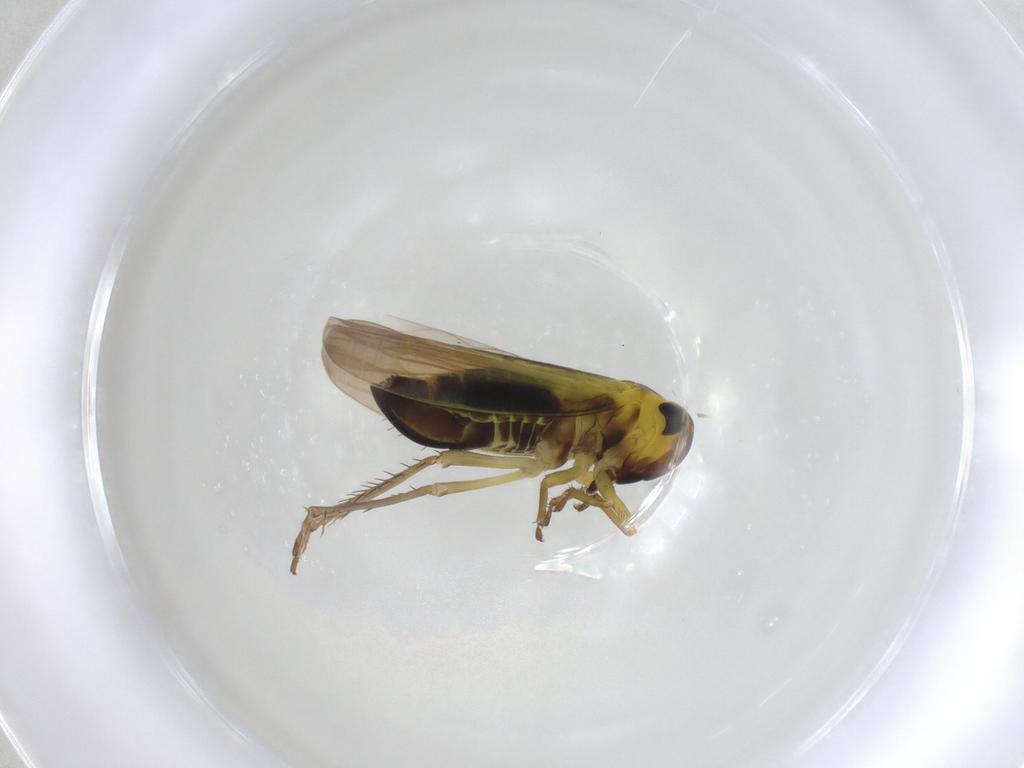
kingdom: Animalia
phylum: Arthropoda
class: Insecta
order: Hemiptera
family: Cicadellidae
